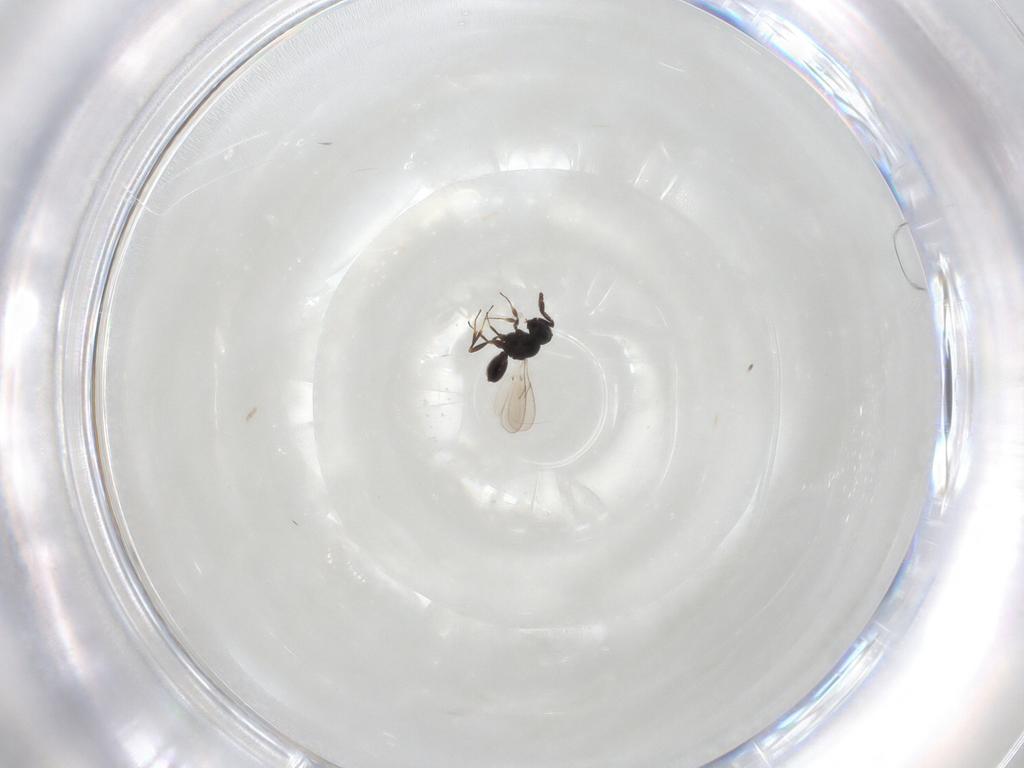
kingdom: Animalia
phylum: Arthropoda
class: Insecta
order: Hymenoptera
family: Scelionidae
